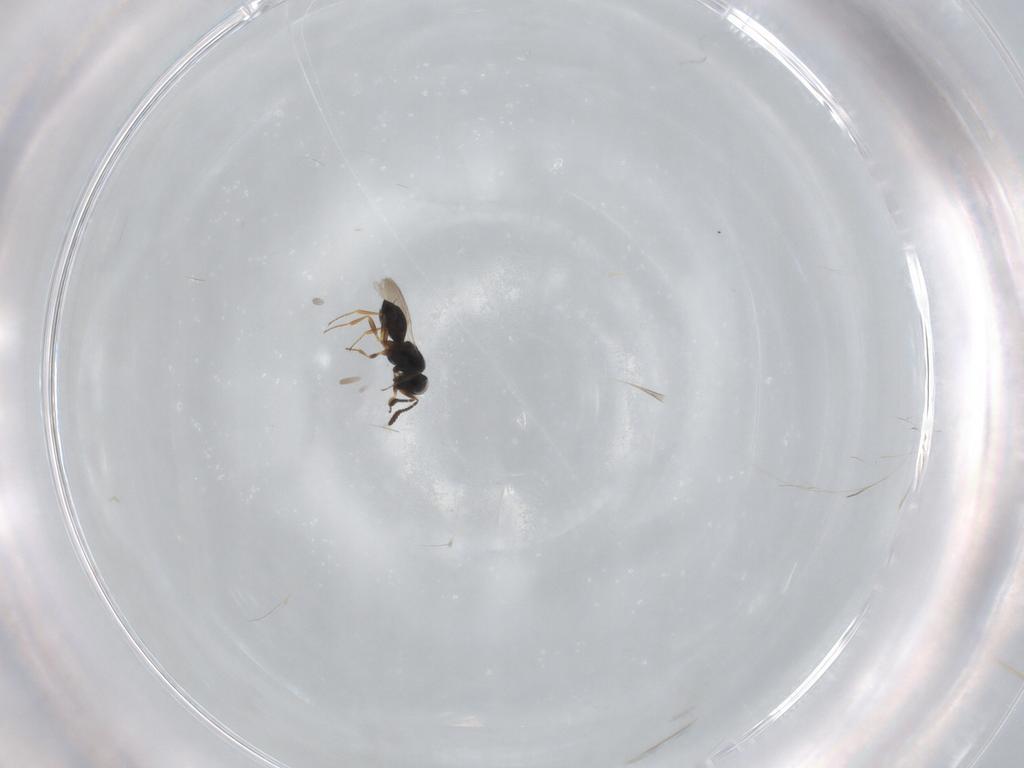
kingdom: Animalia
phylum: Arthropoda
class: Insecta
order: Hymenoptera
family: Scelionidae
